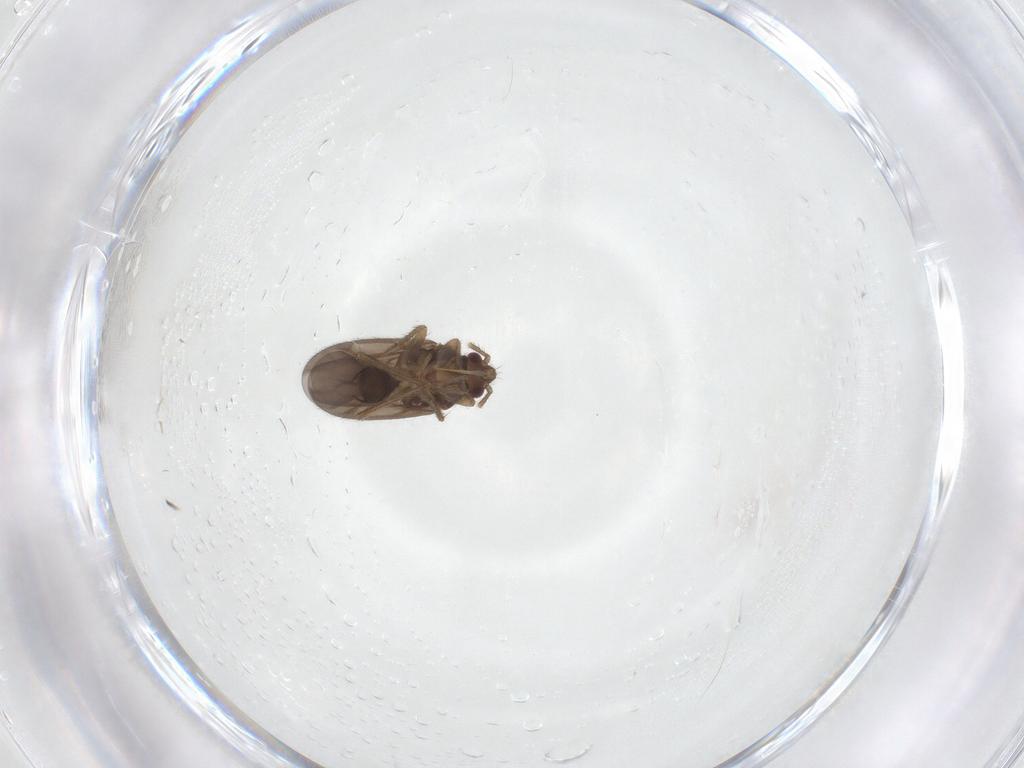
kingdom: Animalia
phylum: Arthropoda
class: Insecta
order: Hemiptera
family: Ceratocombidae
